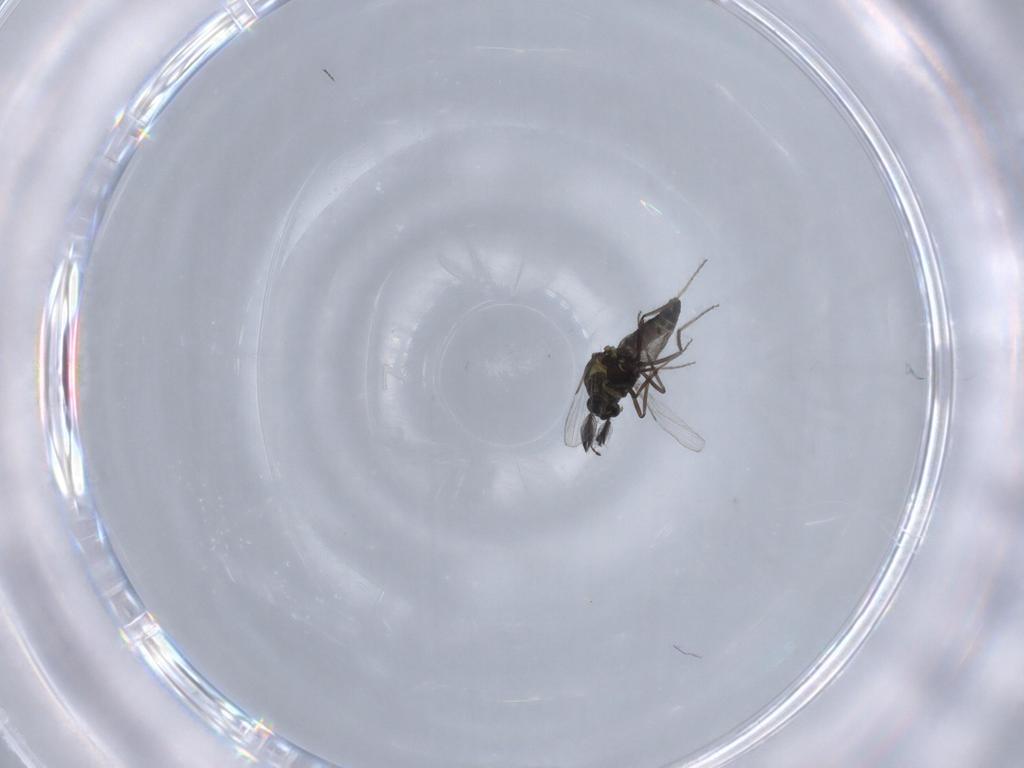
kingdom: Animalia
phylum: Arthropoda
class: Insecta
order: Diptera
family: Ceratopogonidae
